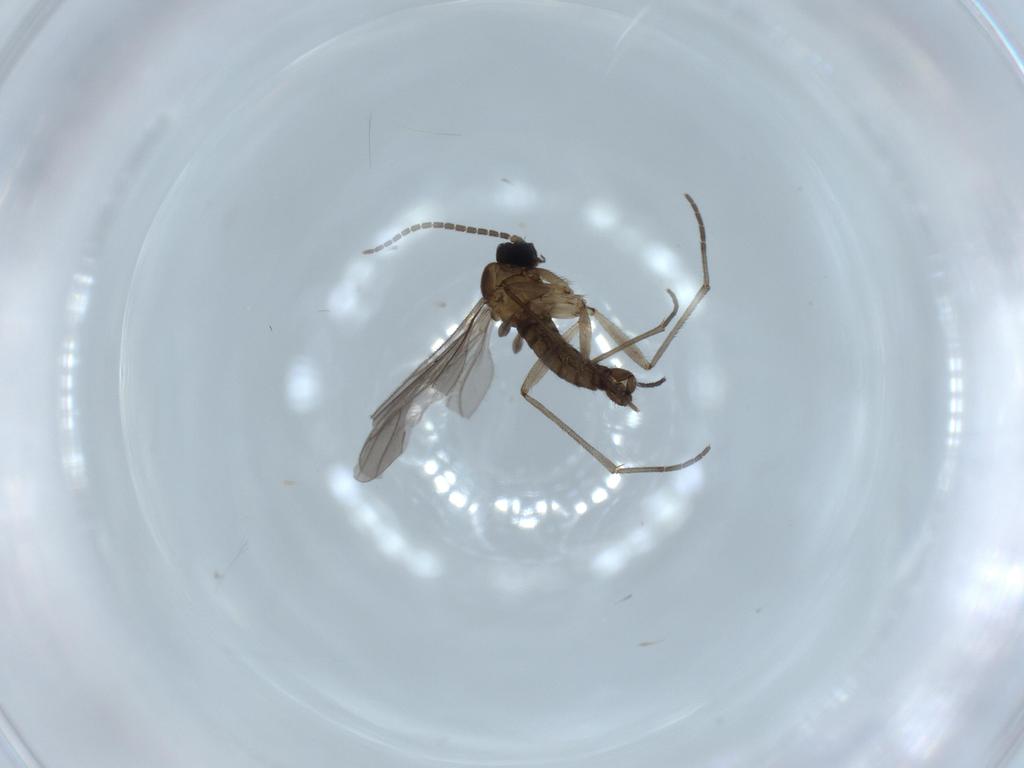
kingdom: Animalia
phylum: Arthropoda
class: Insecta
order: Diptera
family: Sciaridae
